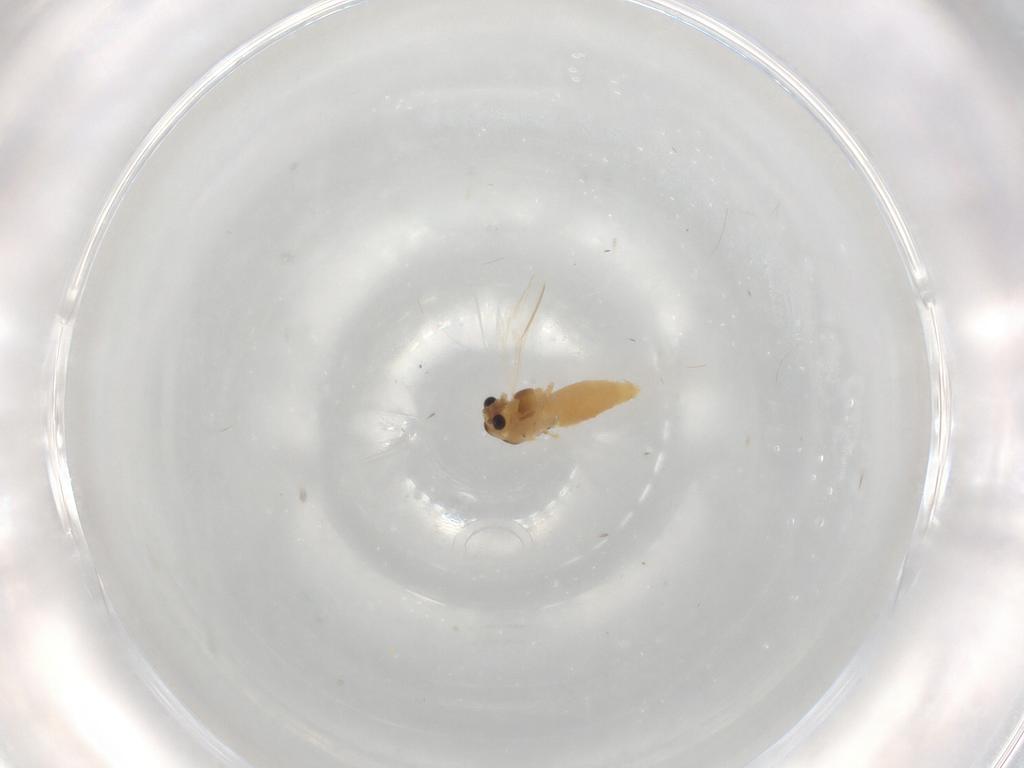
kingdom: Animalia
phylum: Arthropoda
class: Insecta
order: Diptera
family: Chironomidae
